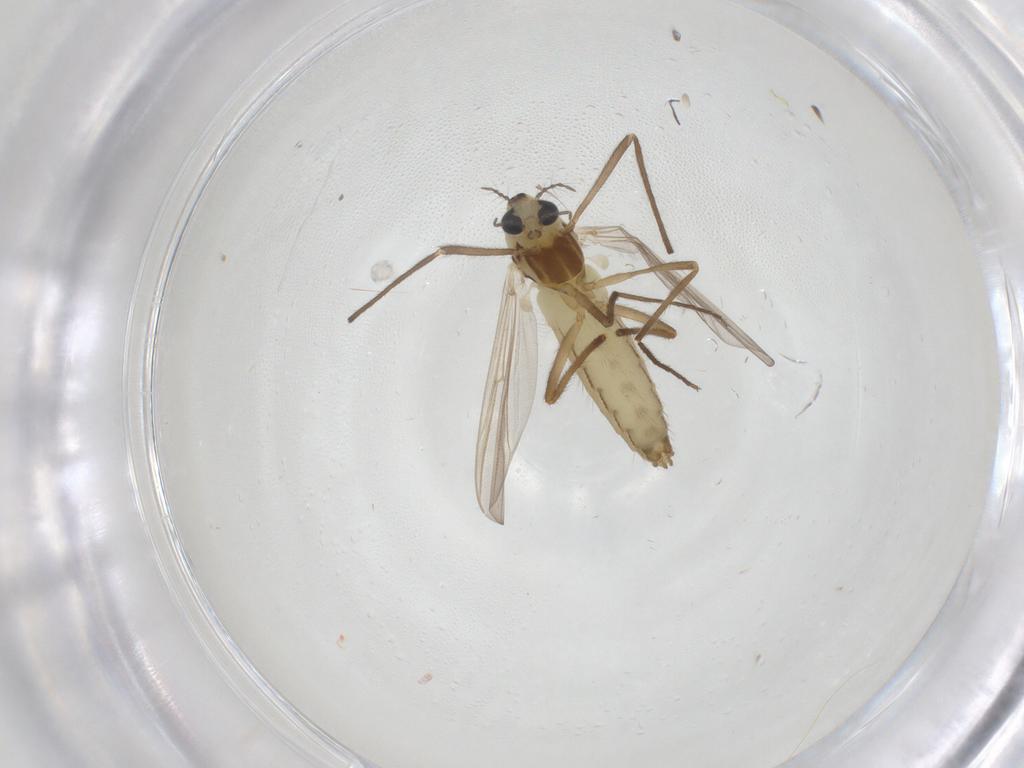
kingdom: Animalia
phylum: Arthropoda
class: Insecta
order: Diptera
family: Chironomidae
